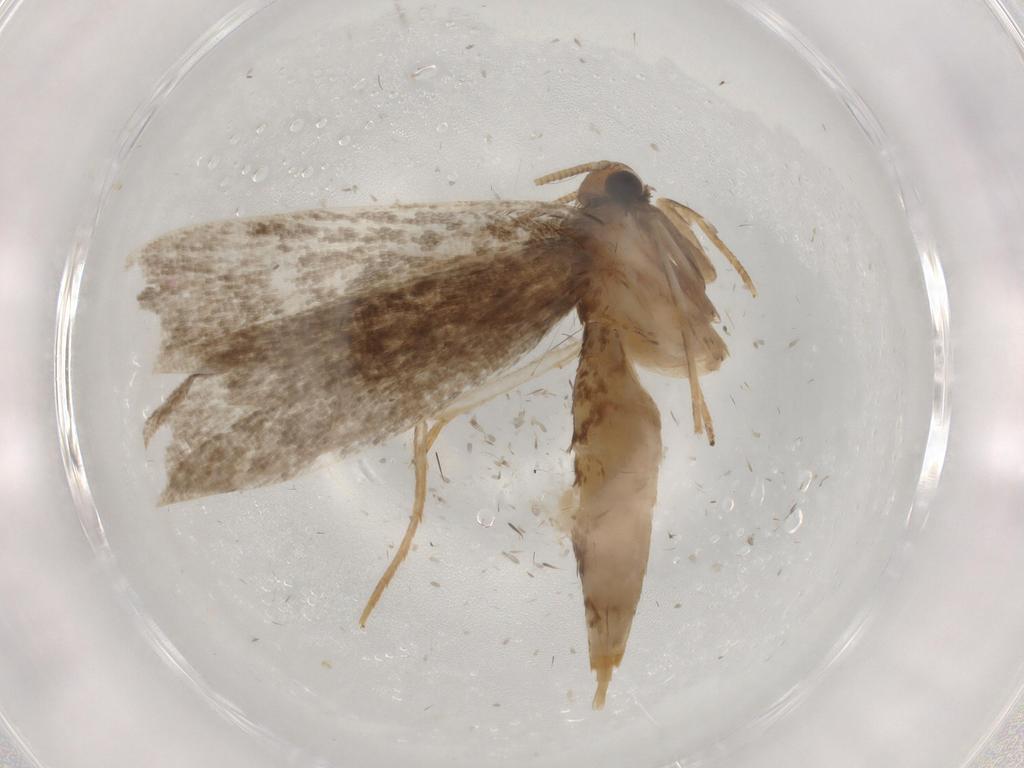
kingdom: Animalia
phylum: Arthropoda
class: Insecta
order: Lepidoptera
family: Tineidae
